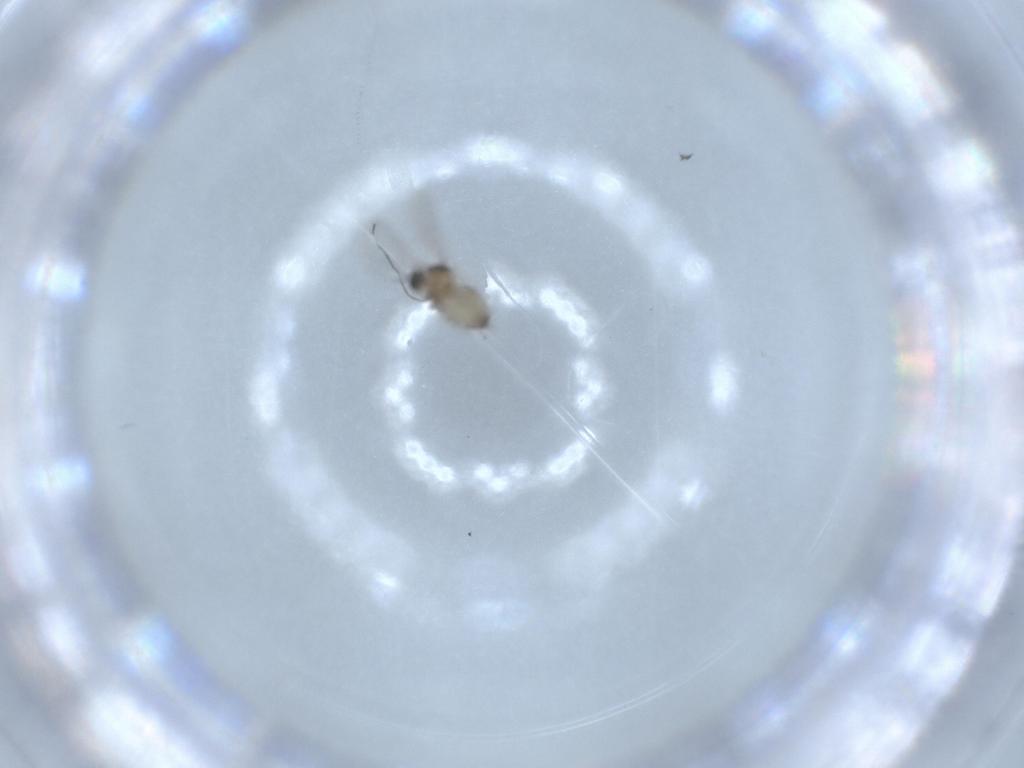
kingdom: Animalia
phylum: Arthropoda
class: Insecta
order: Diptera
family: Cecidomyiidae
